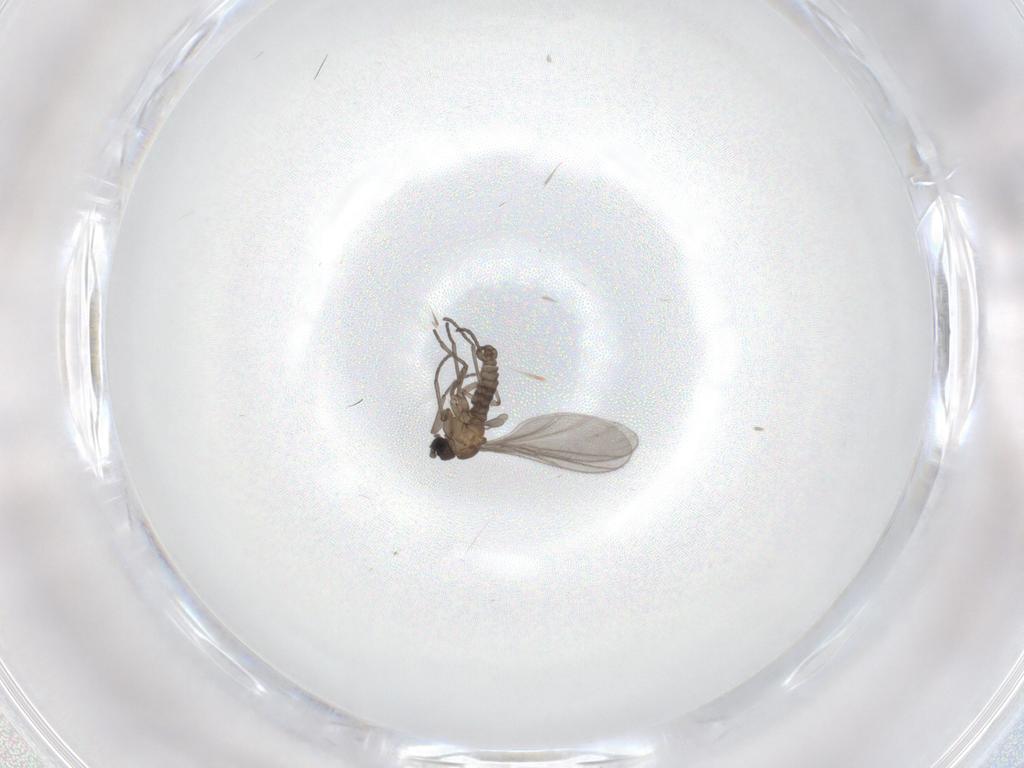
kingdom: Animalia
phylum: Arthropoda
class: Insecta
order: Diptera
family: Sciaridae
